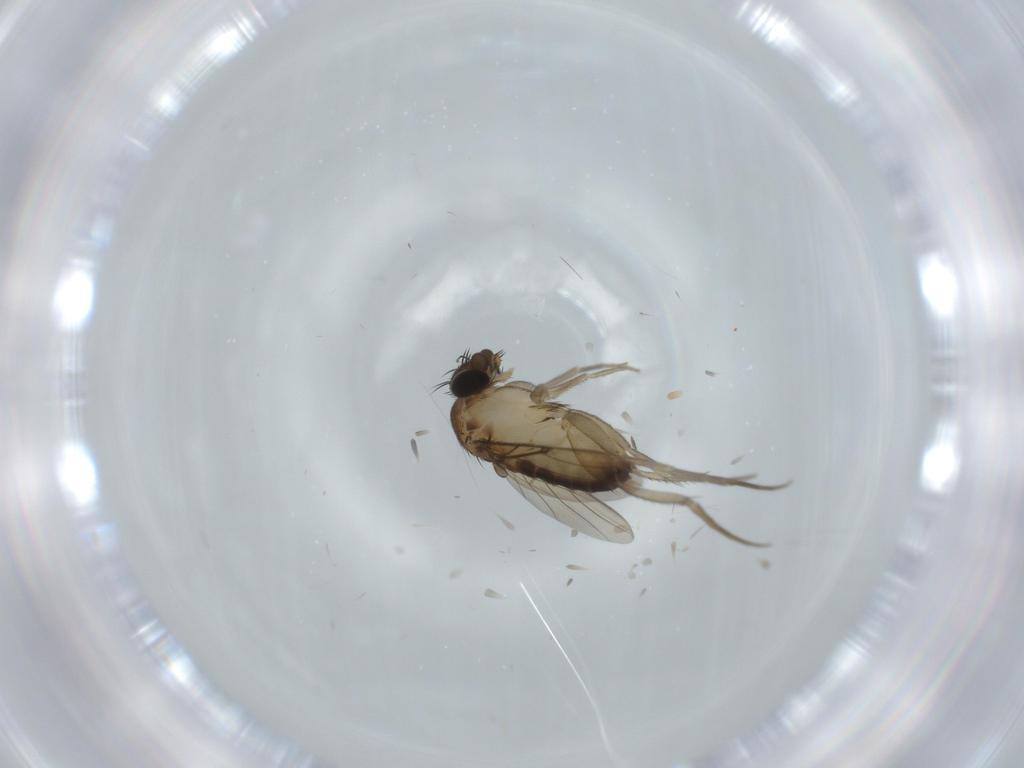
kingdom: Animalia
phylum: Arthropoda
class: Insecta
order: Diptera
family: Phoridae
